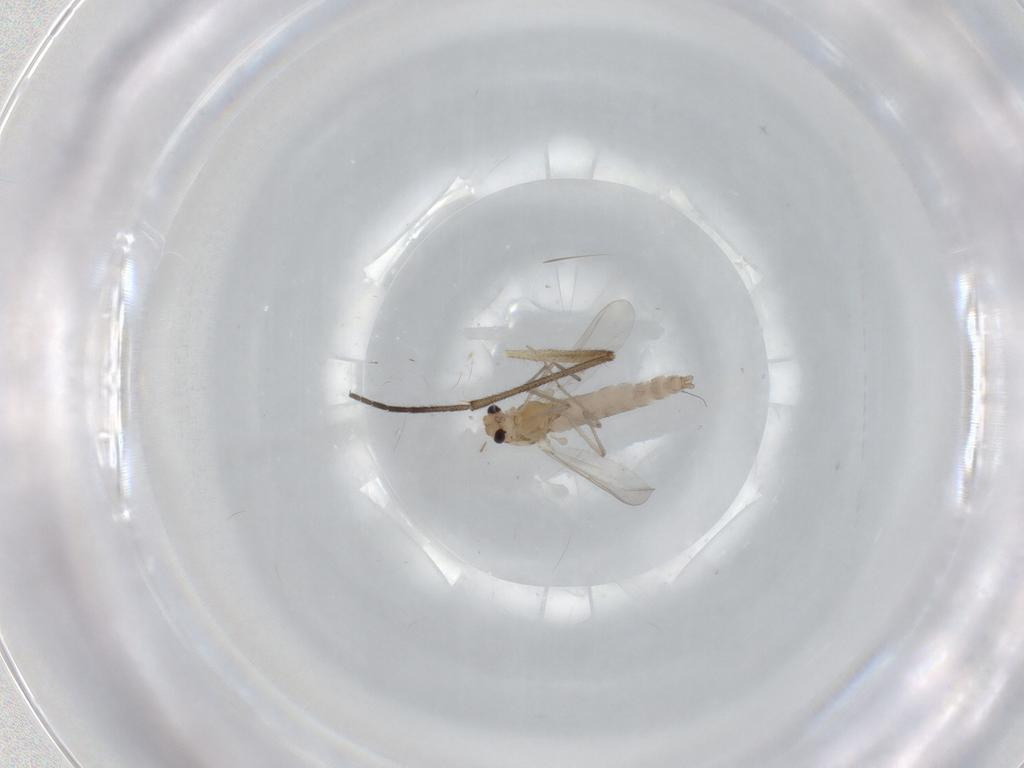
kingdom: Animalia
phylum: Arthropoda
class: Insecta
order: Diptera
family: Chironomidae
